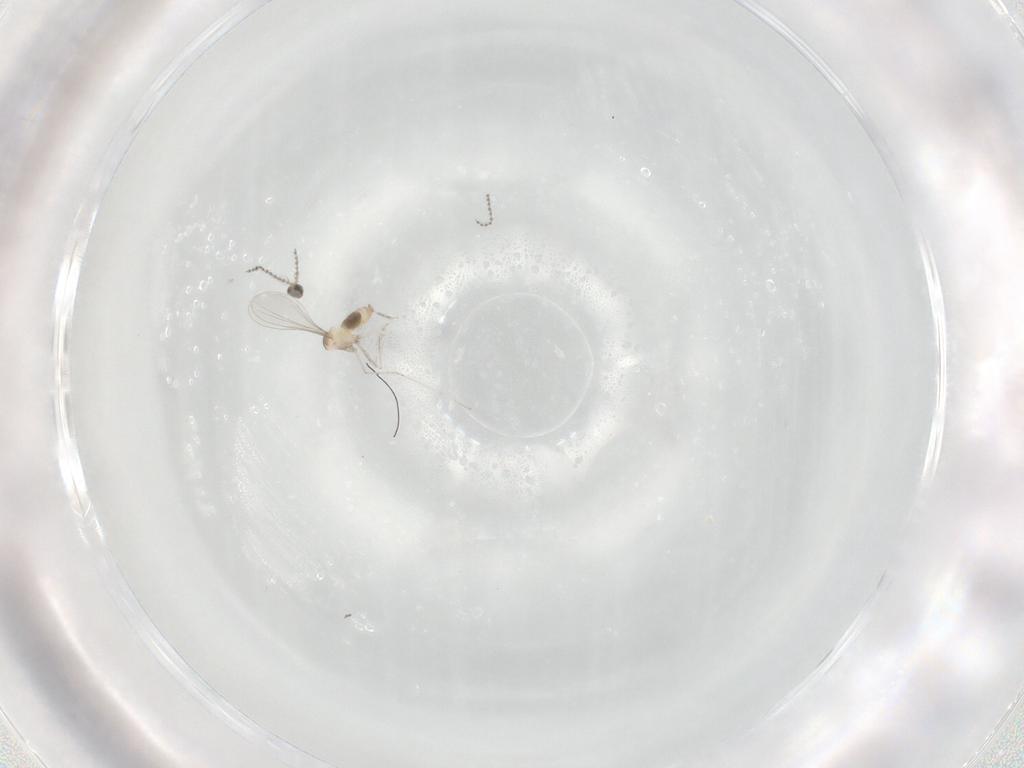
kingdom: Animalia
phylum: Arthropoda
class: Insecta
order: Diptera
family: Cecidomyiidae
